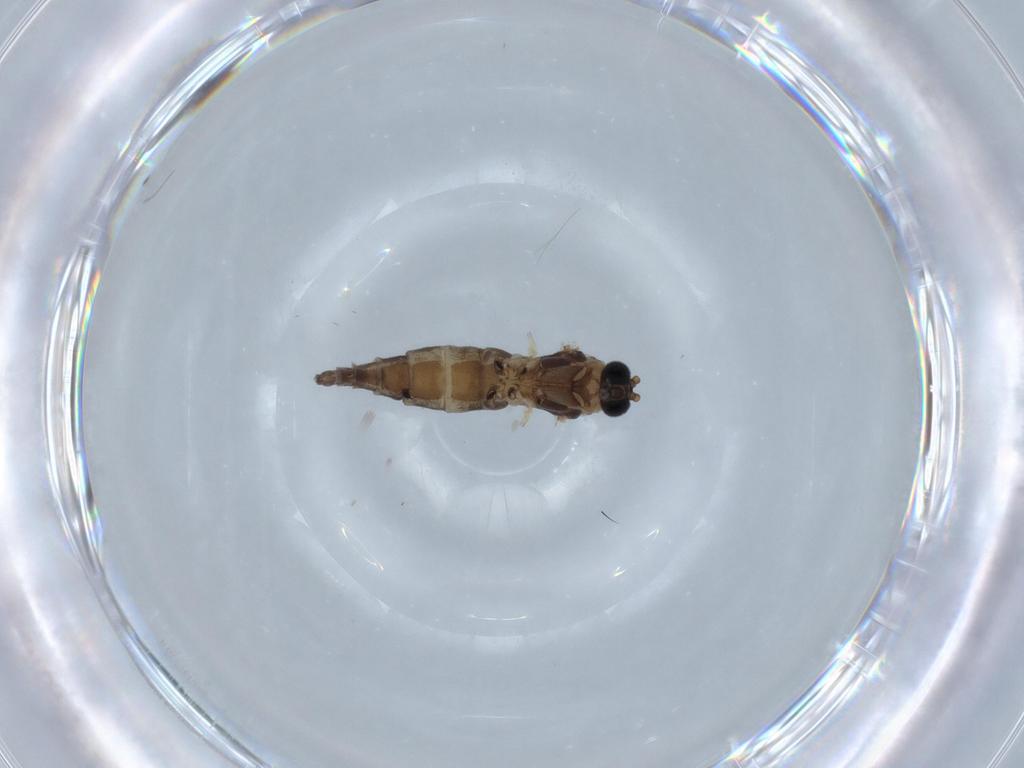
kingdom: Animalia
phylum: Arthropoda
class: Insecta
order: Diptera
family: Sciaridae
